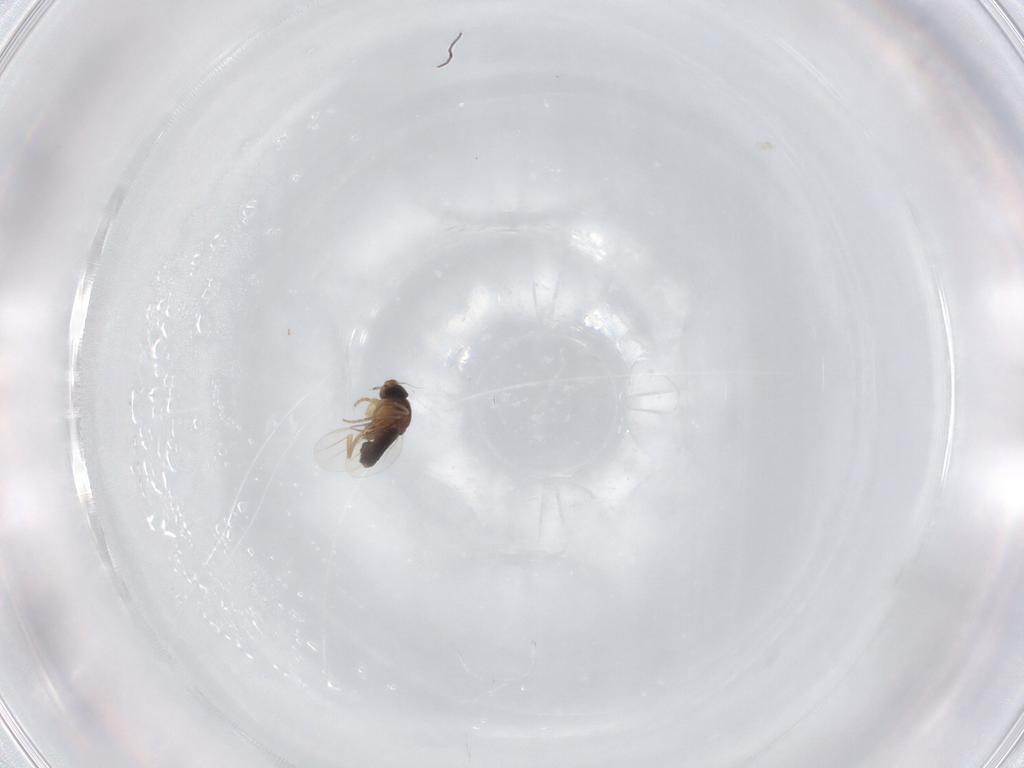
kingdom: Animalia
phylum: Arthropoda
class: Insecta
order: Diptera
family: Phoridae
